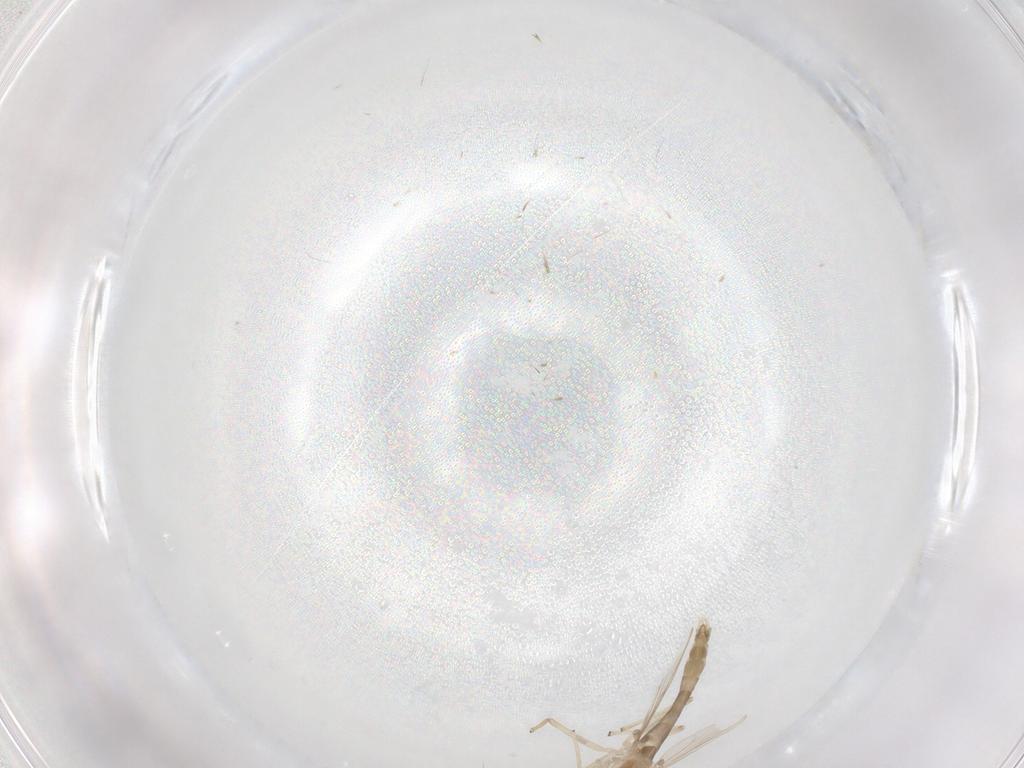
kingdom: Animalia
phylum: Arthropoda
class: Insecta
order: Diptera
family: Chironomidae
